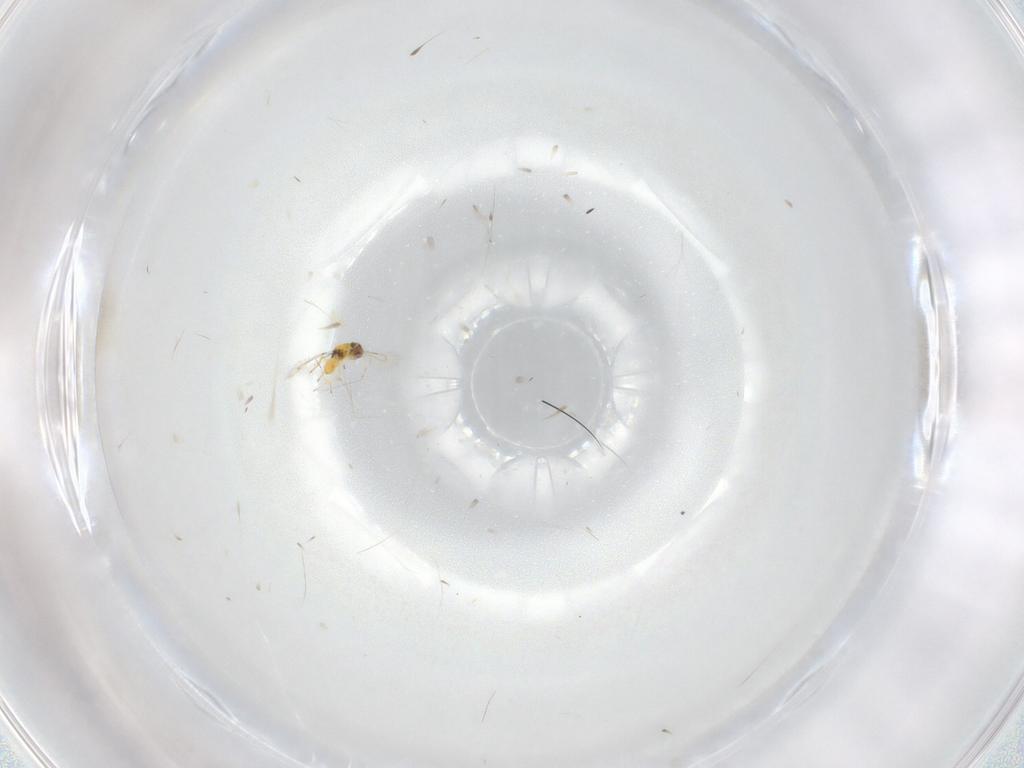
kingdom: Animalia
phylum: Arthropoda
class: Insecta
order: Hymenoptera
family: Eulophidae
